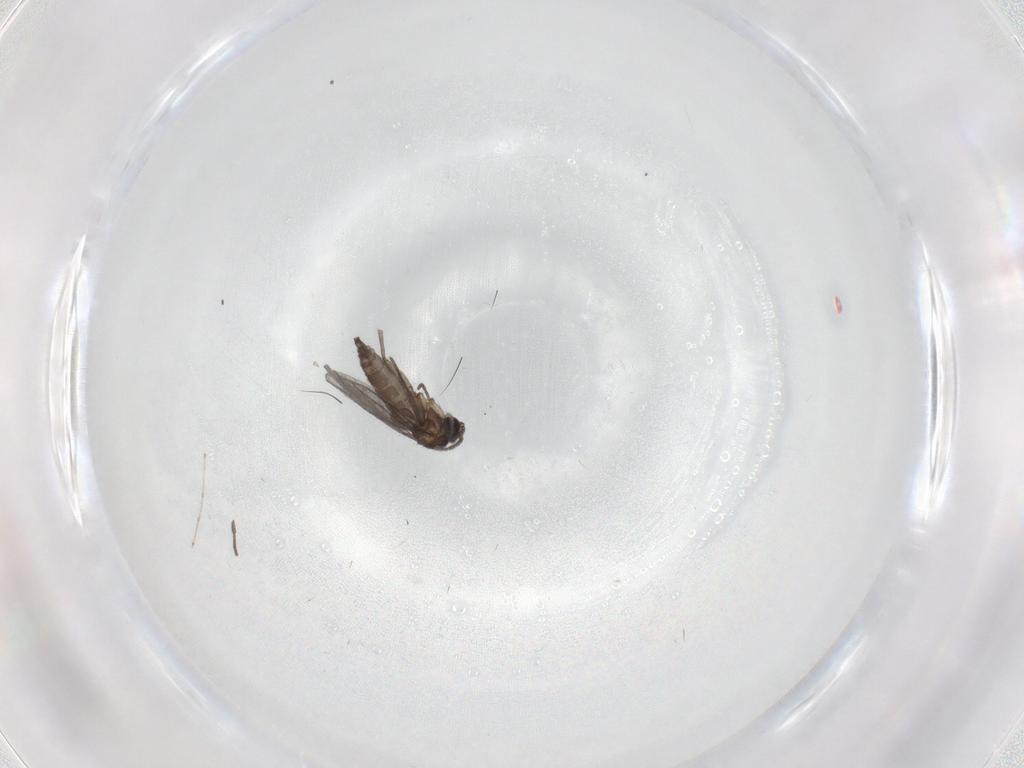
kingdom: Animalia
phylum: Arthropoda
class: Insecta
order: Diptera
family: Sciaridae
